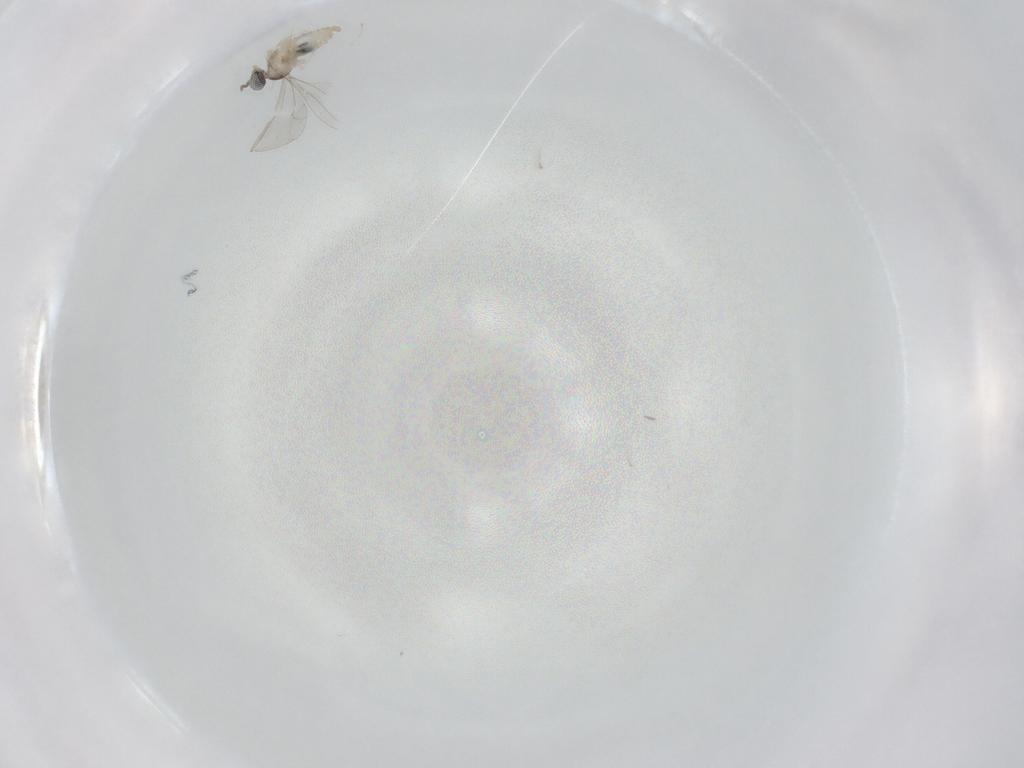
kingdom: Animalia
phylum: Arthropoda
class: Insecta
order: Diptera
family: Cecidomyiidae
